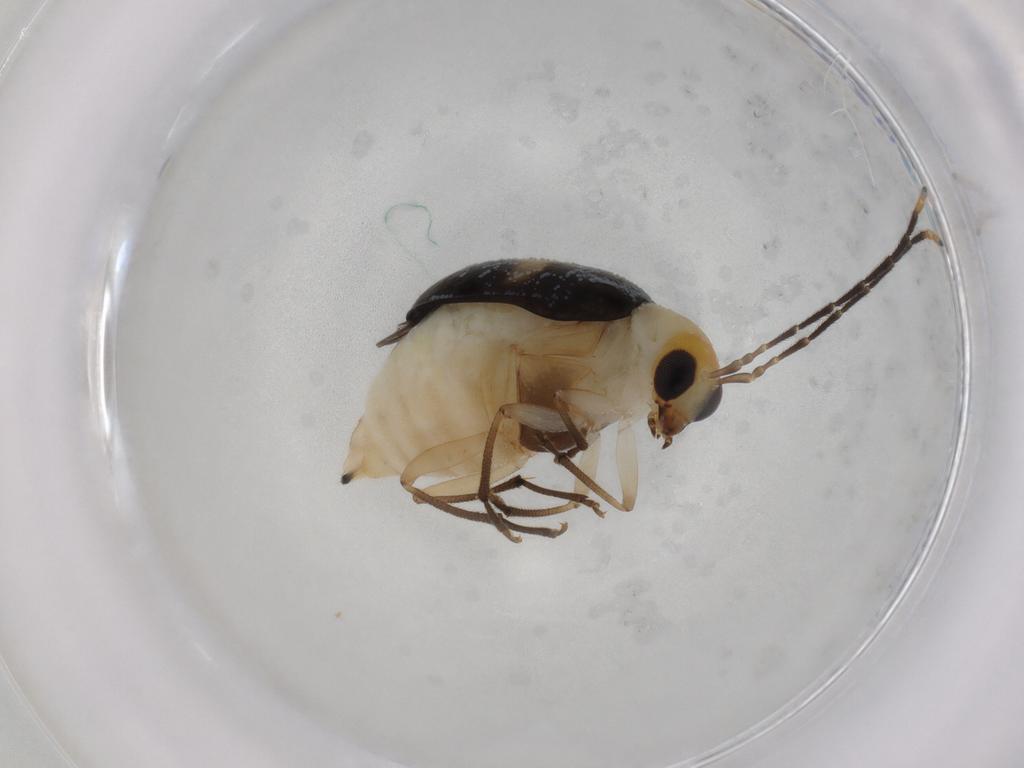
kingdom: Animalia
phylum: Arthropoda
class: Insecta
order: Coleoptera
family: Chrysomelidae
